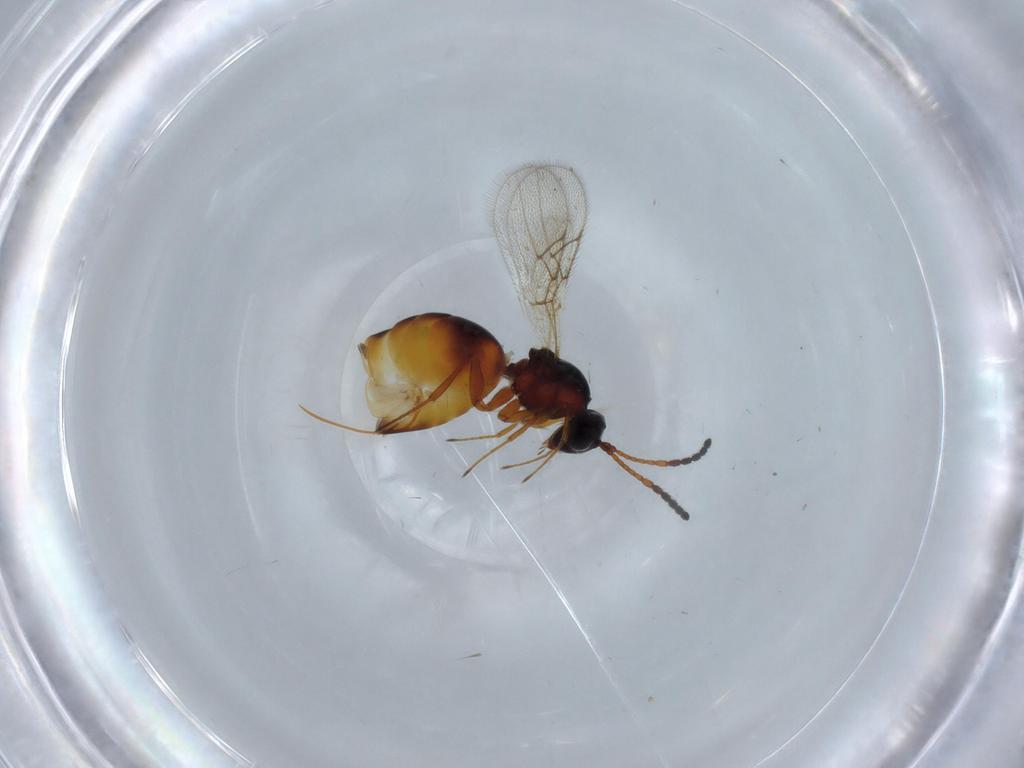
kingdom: Animalia
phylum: Arthropoda
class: Insecta
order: Hymenoptera
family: Figitidae
